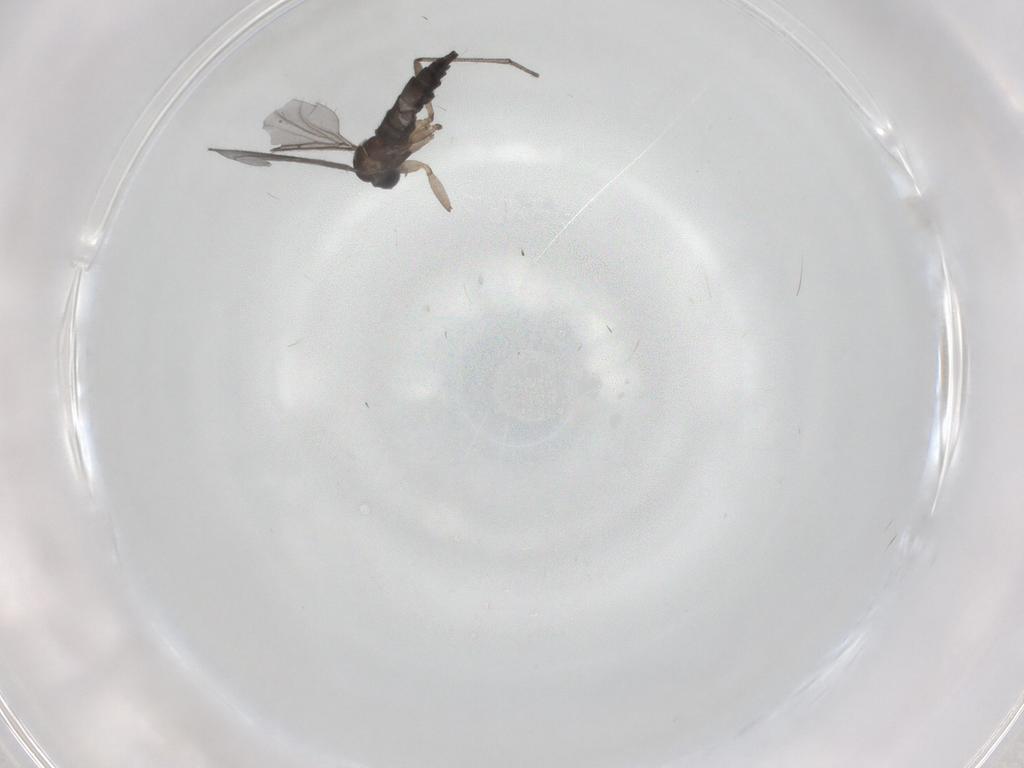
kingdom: Animalia
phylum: Arthropoda
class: Insecta
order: Diptera
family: Sciaridae
